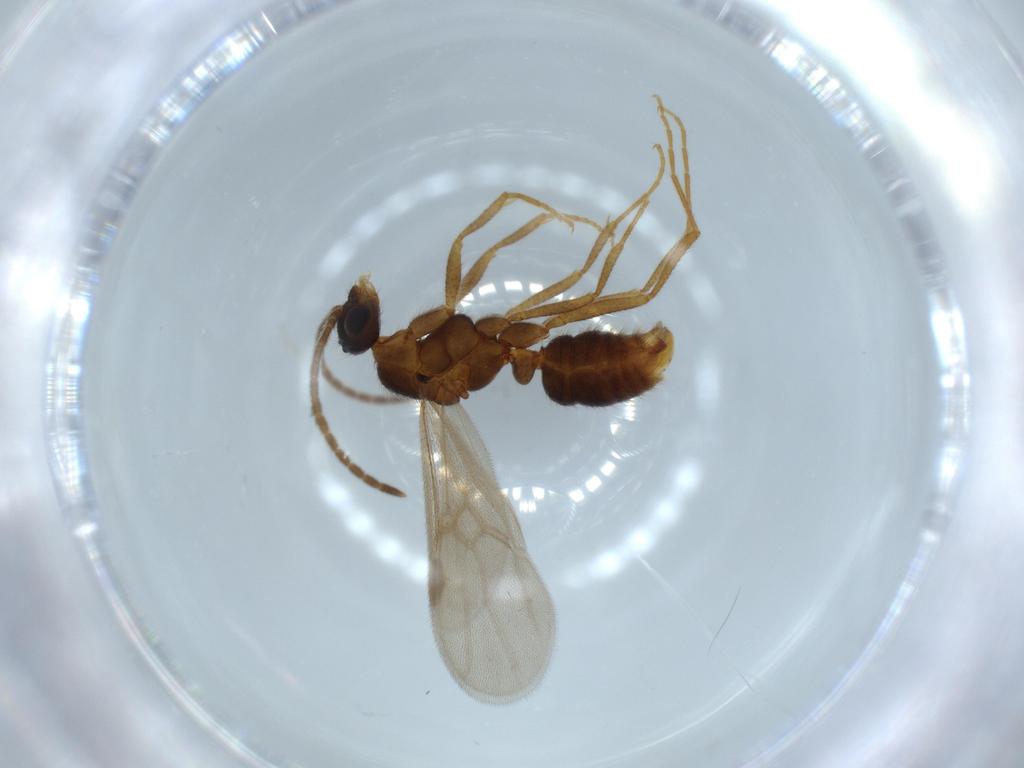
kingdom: Animalia
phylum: Arthropoda
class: Insecta
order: Hymenoptera
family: Formicidae
